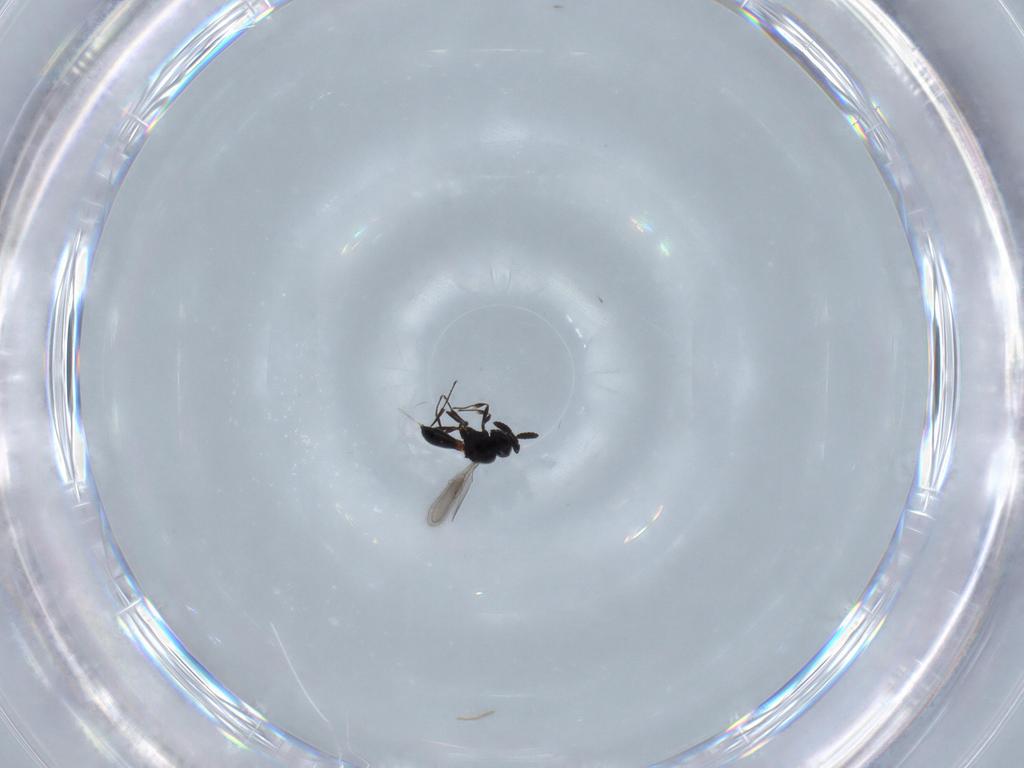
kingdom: Animalia
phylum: Arthropoda
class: Insecta
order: Hymenoptera
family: Scelionidae
